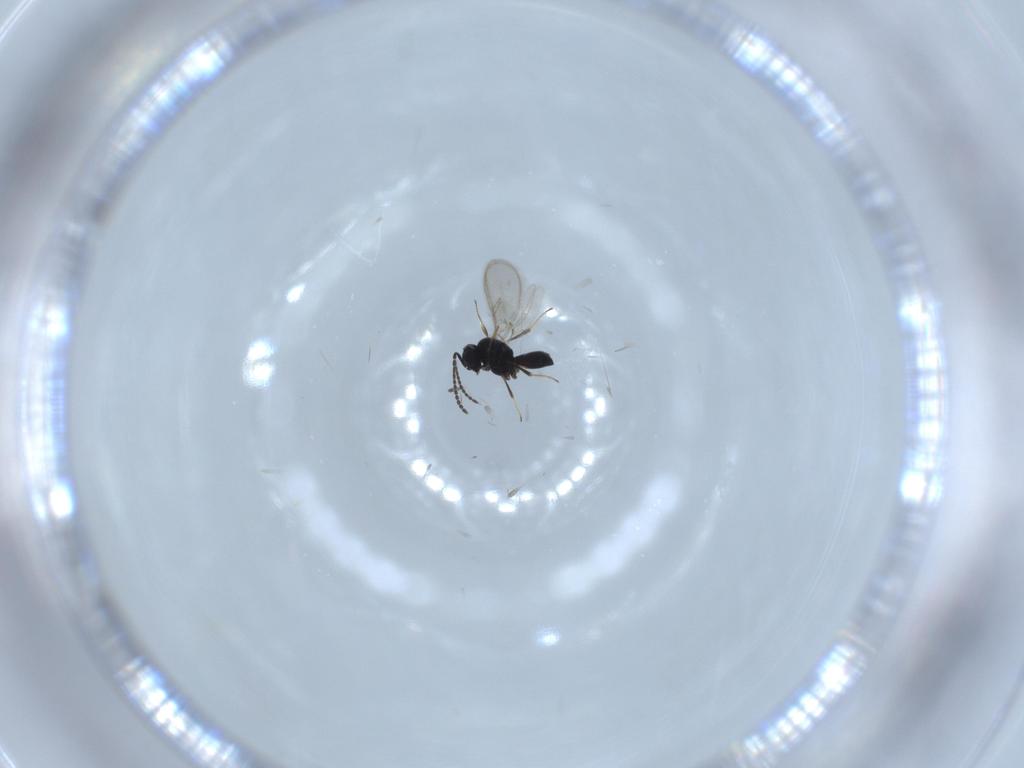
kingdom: Animalia
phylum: Arthropoda
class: Insecta
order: Hymenoptera
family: Scelionidae
